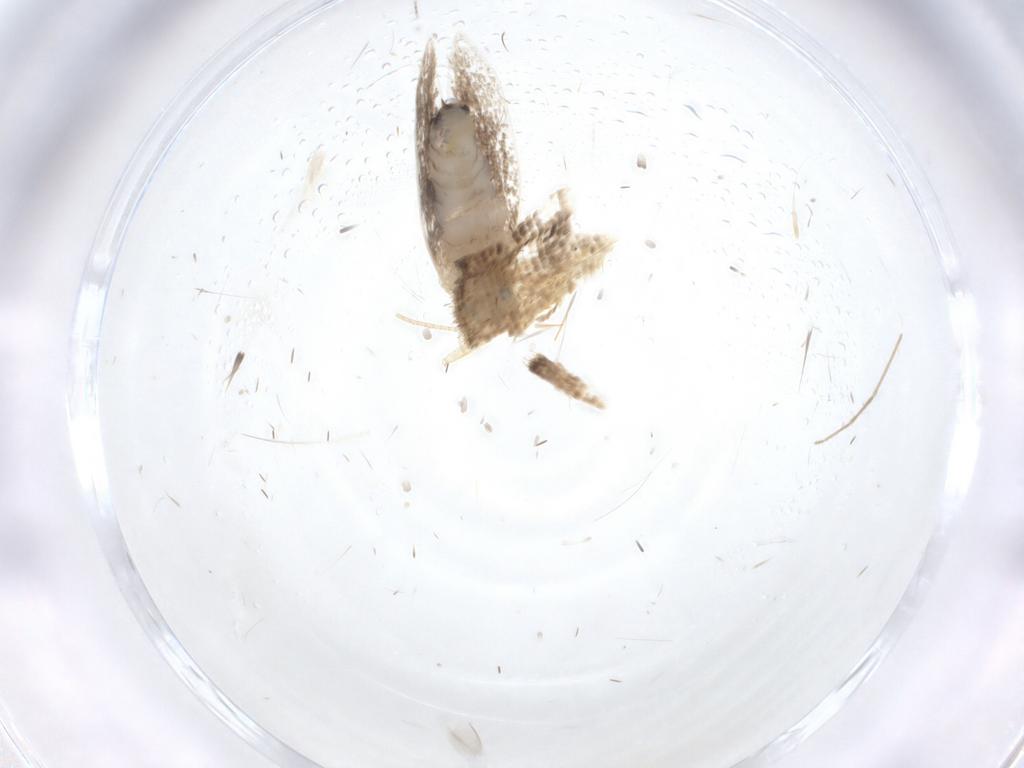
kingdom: Animalia
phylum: Arthropoda
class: Insecta
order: Lepidoptera
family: Dryadaulidae
